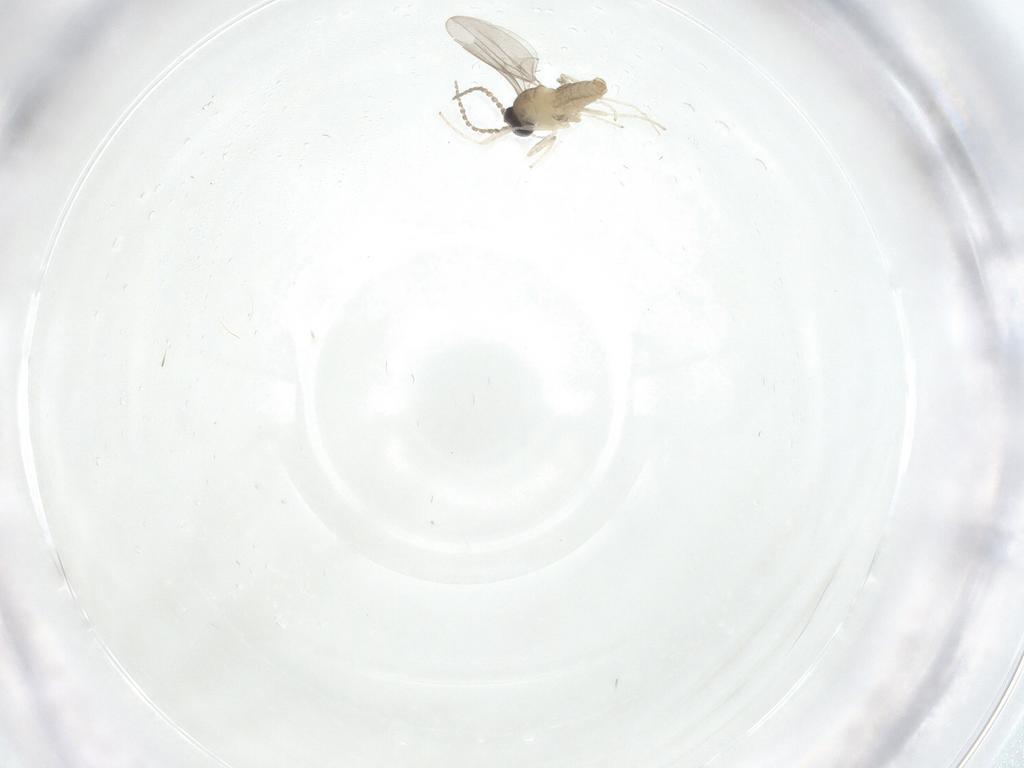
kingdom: Animalia
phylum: Arthropoda
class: Insecta
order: Diptera
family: Cecidomyiidae
